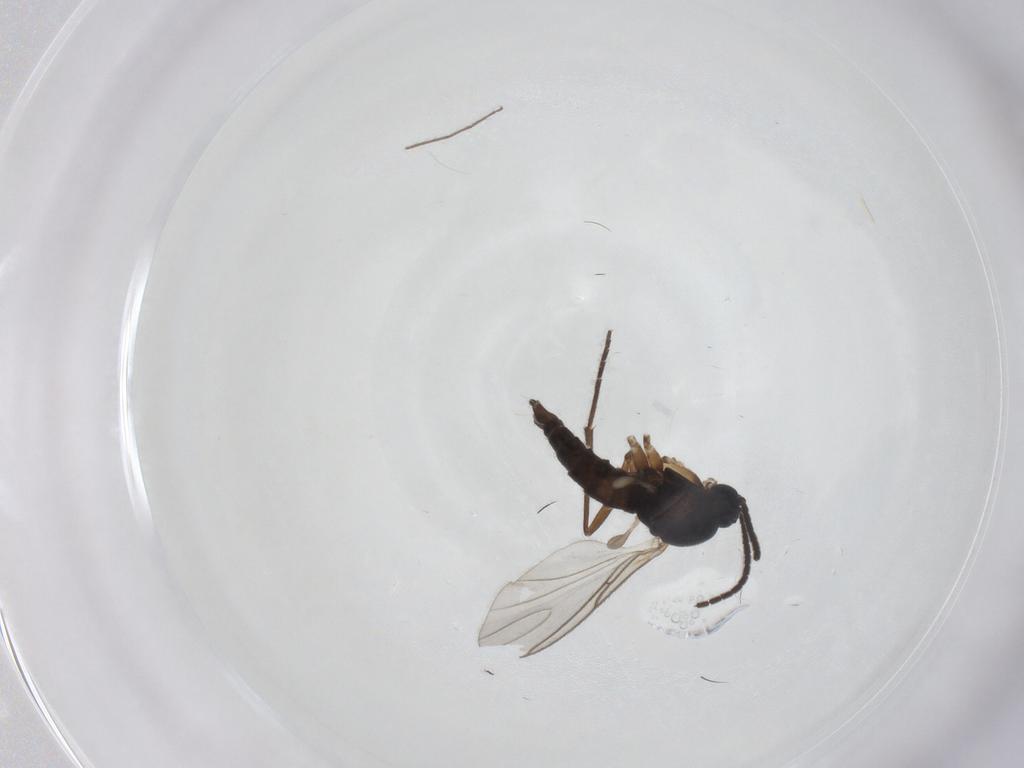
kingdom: Animalia
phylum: Arthropoda
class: Insecta
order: Diptera
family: Sciaridae
